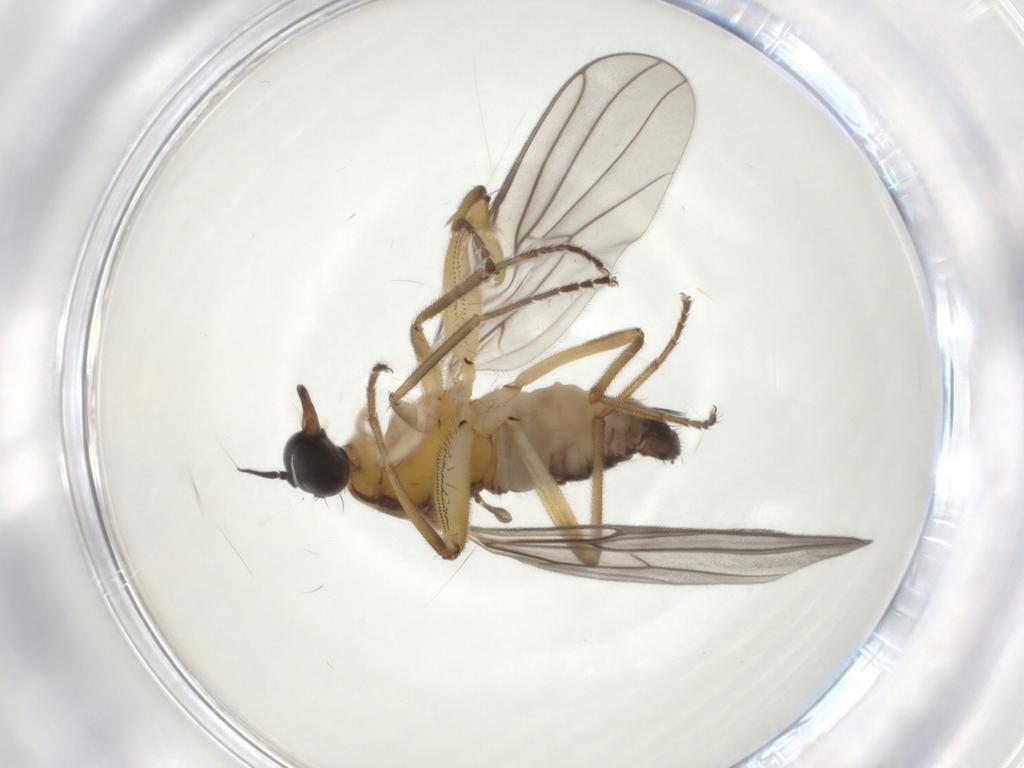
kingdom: Animalia
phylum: Arthropoda
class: Insecta
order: Diptera
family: Hybotidae
